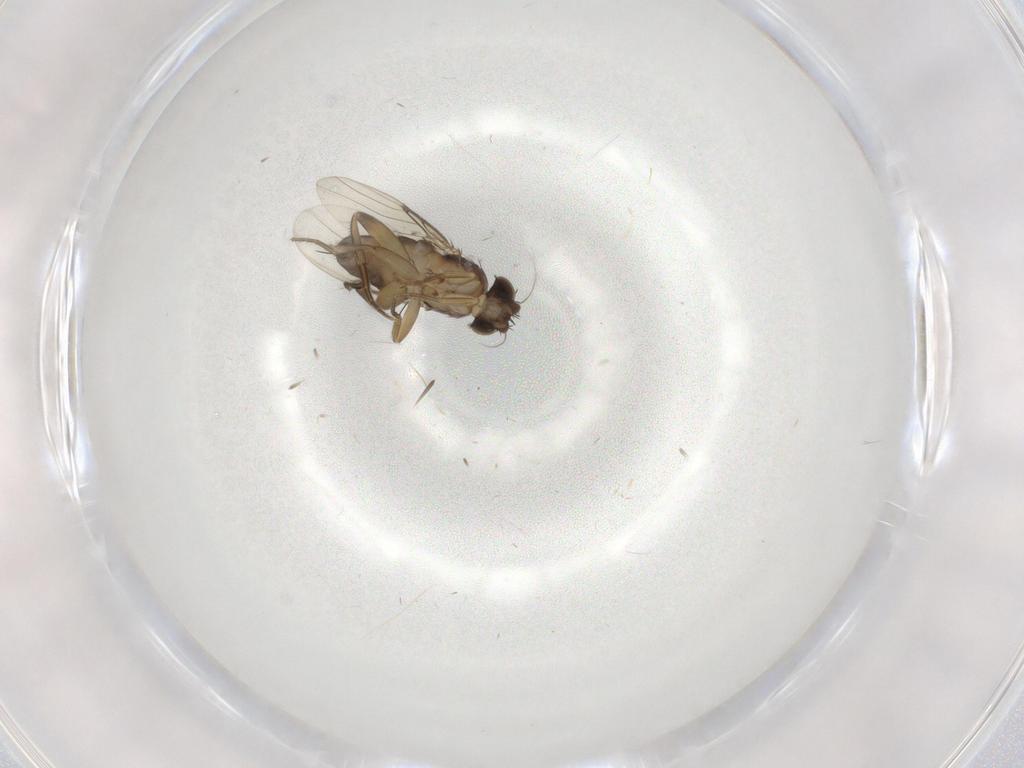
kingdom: Animalia
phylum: Arthropoda
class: Insecta
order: Diptera
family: Phoridae
